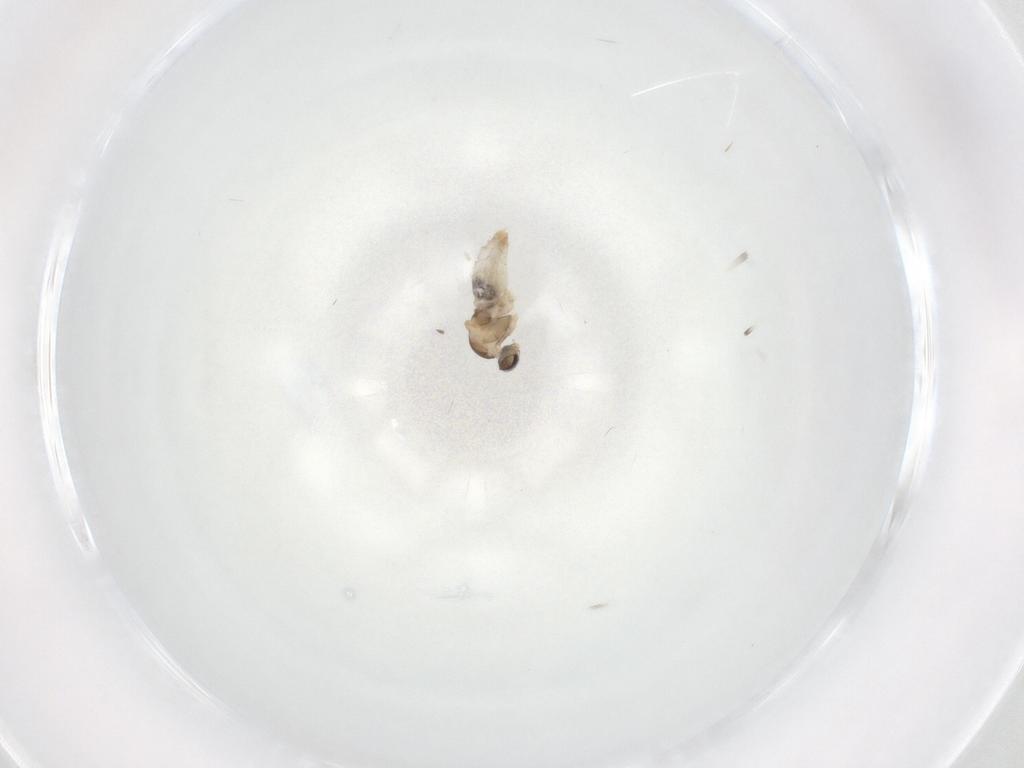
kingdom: Animalia
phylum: Arthropoda
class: Insecta
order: Diptera
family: Cecidomyiidae
